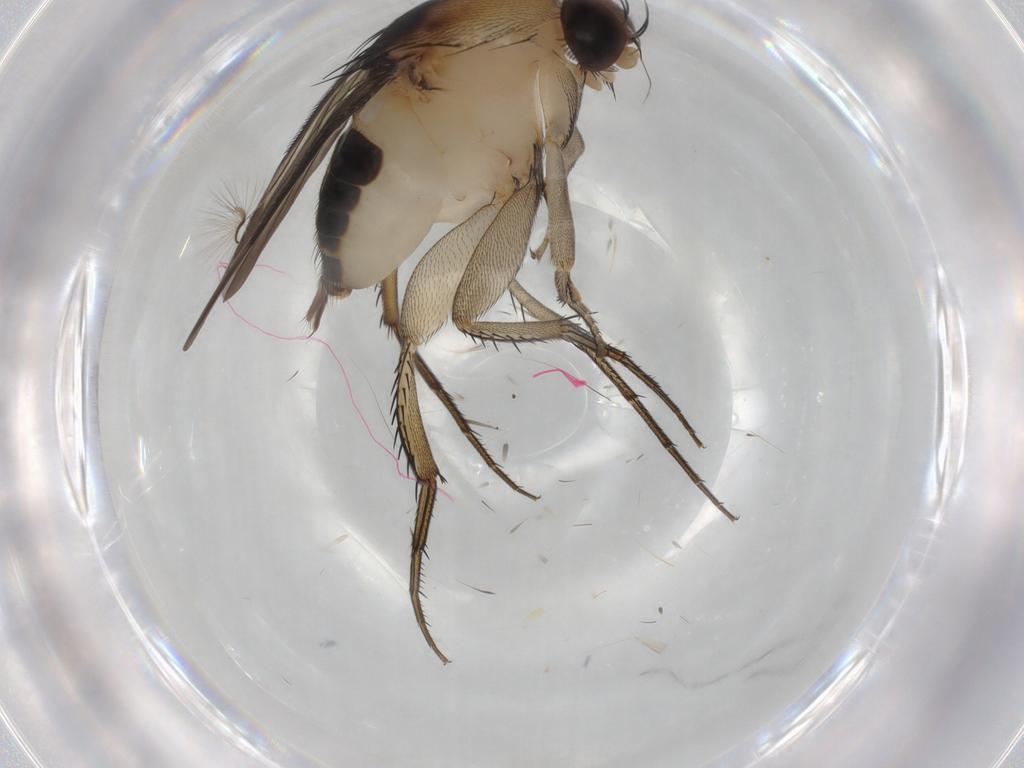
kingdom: Animalia
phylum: Arthropoda
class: Insecta
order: Diptera
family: Phoridae
